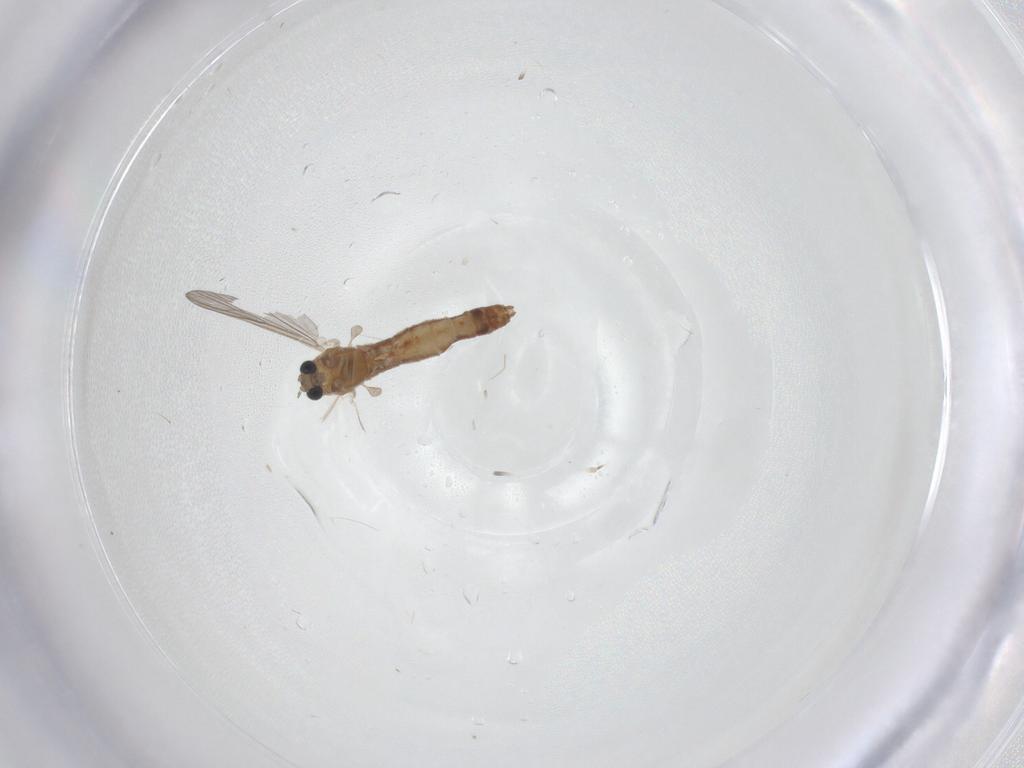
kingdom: Animalia
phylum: Arthropoda
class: Insecta
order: Diptera
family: Chironomidae
